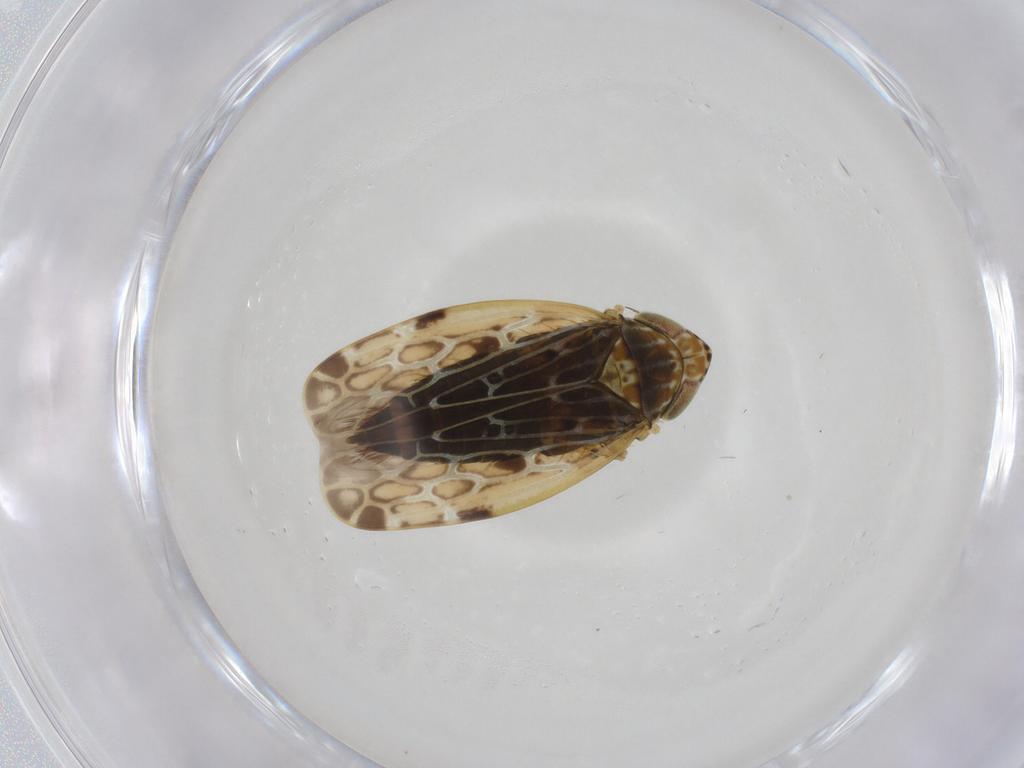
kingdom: Animalia
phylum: Arthropoda
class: Insecta
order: Hemiptera
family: Cicadellidae
